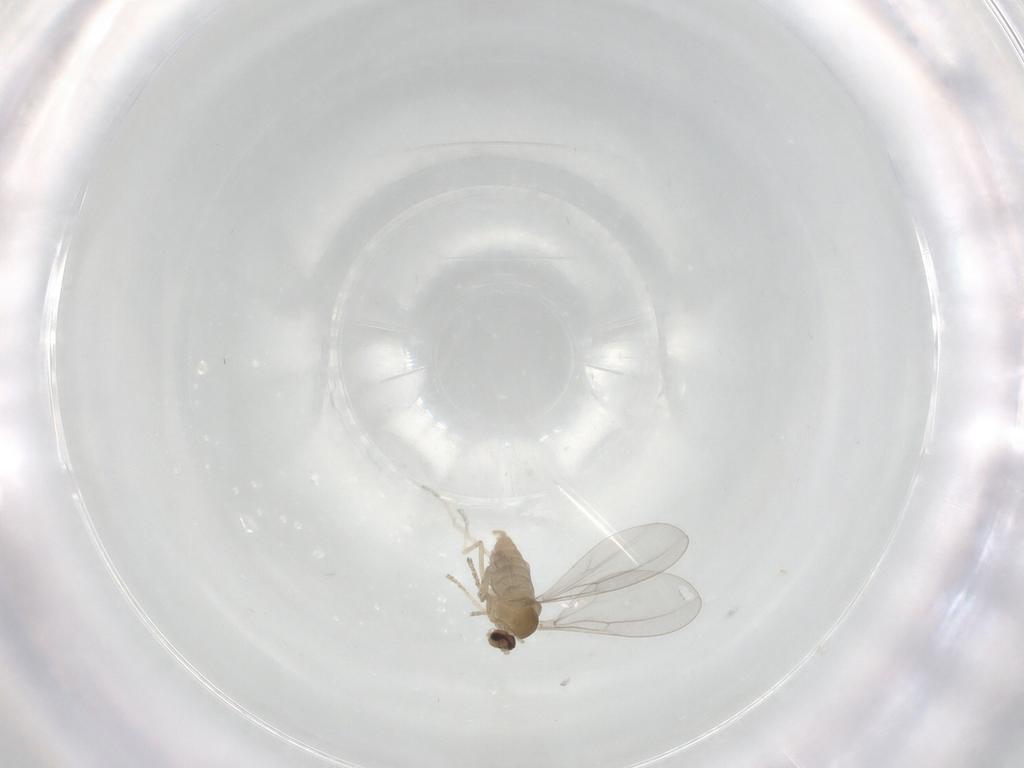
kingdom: Animalia
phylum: Arthropoda
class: Insecta
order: Diptera
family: Cecidomyiidae
